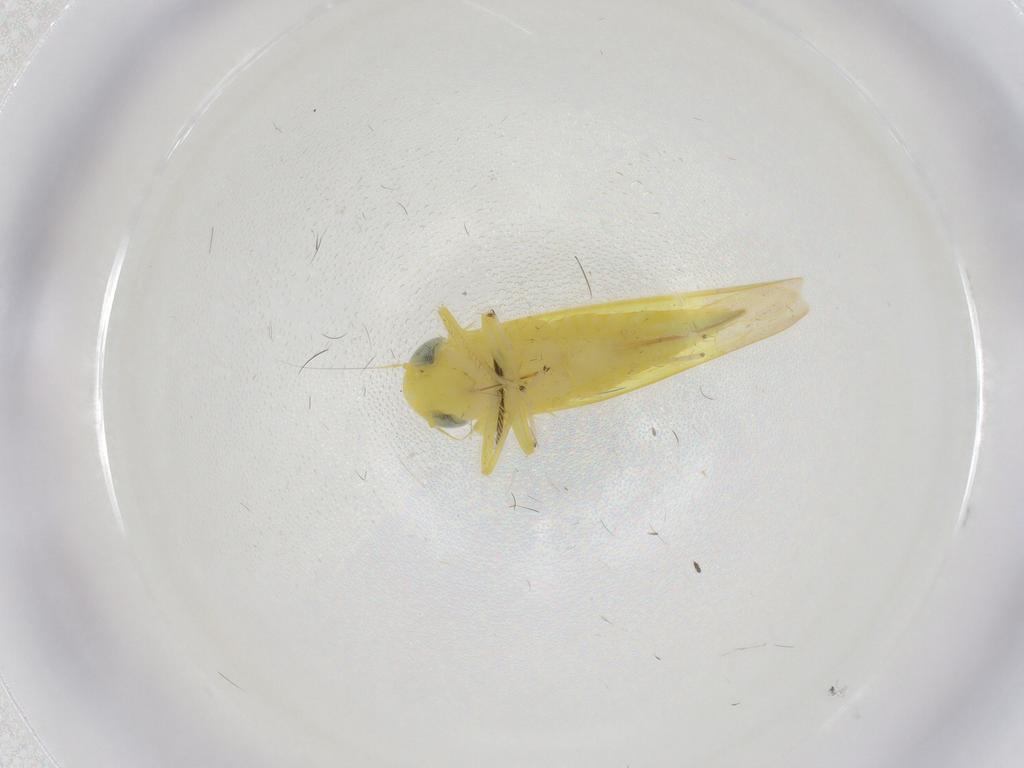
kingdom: Animalia
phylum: Arthropoda
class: Insecta
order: Hemiptera
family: Cicadellidae
